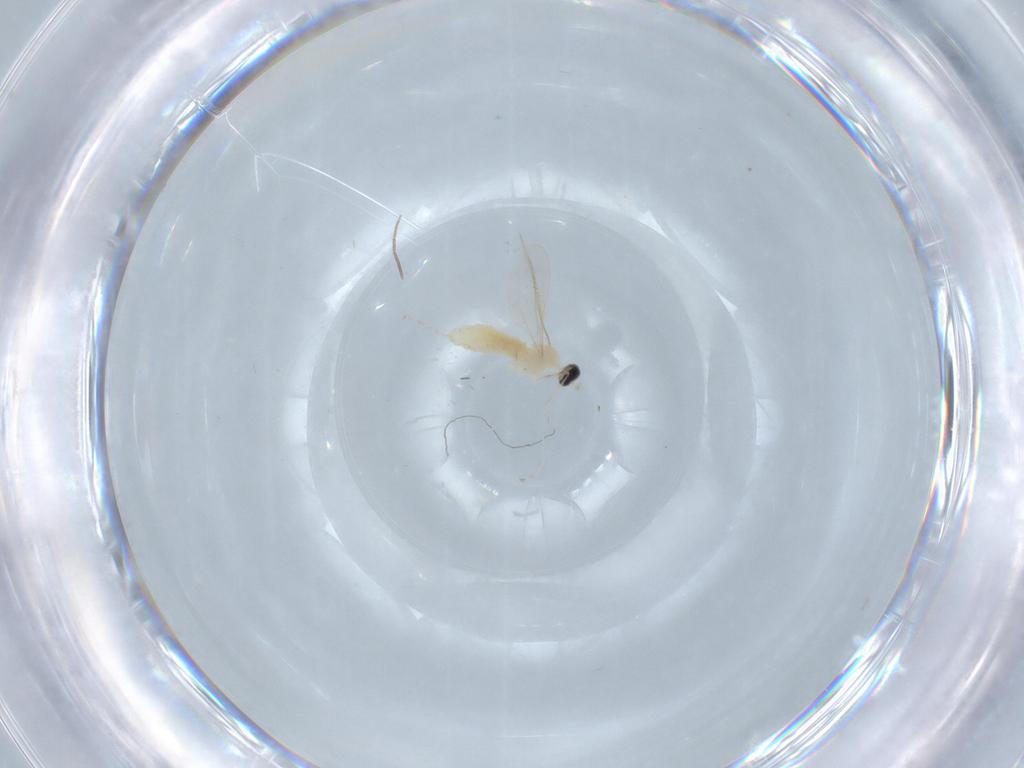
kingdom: Animalia
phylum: Arthropoda
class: Insecta
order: Diptera
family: Cecidomyiidae
